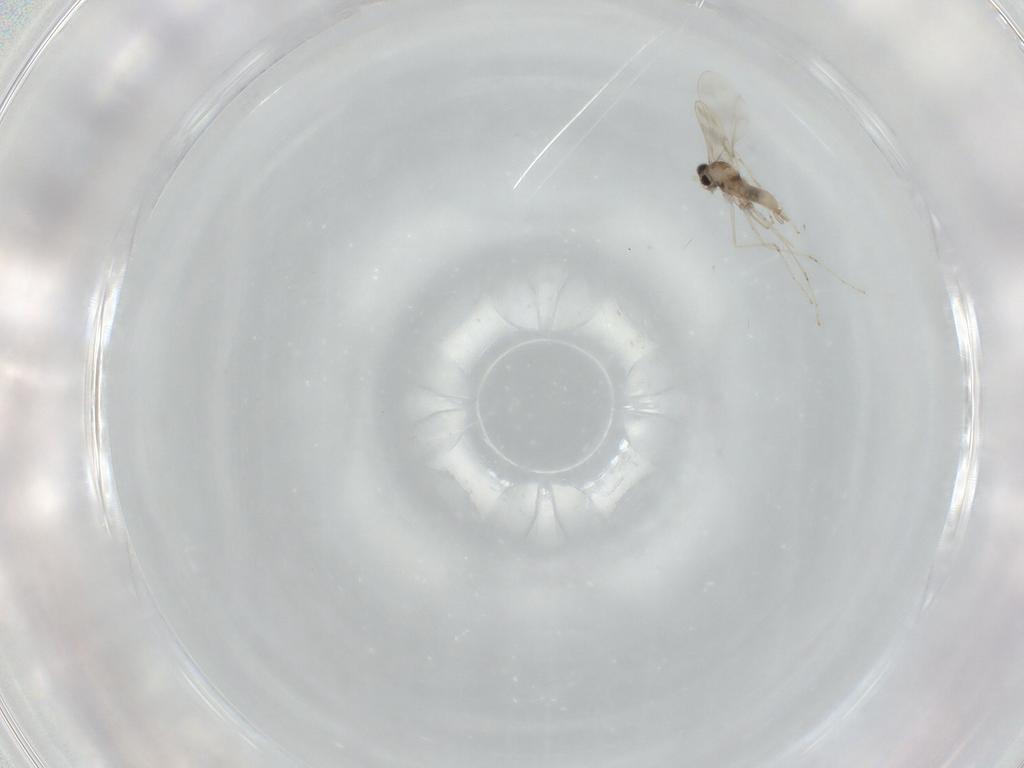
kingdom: Animalia
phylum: Arthropoda
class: Insecta
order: Diptera
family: Cecidomyiidae
